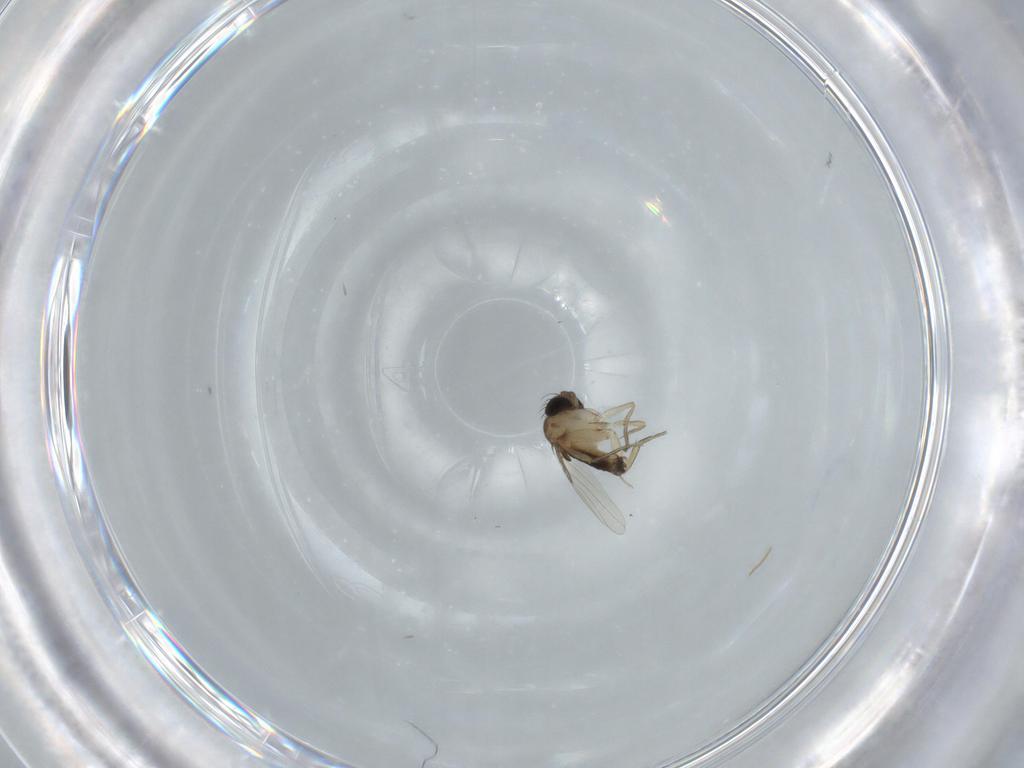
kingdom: Animalia
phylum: Arthropoda
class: Insecta
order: Diptera
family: Phoridae
